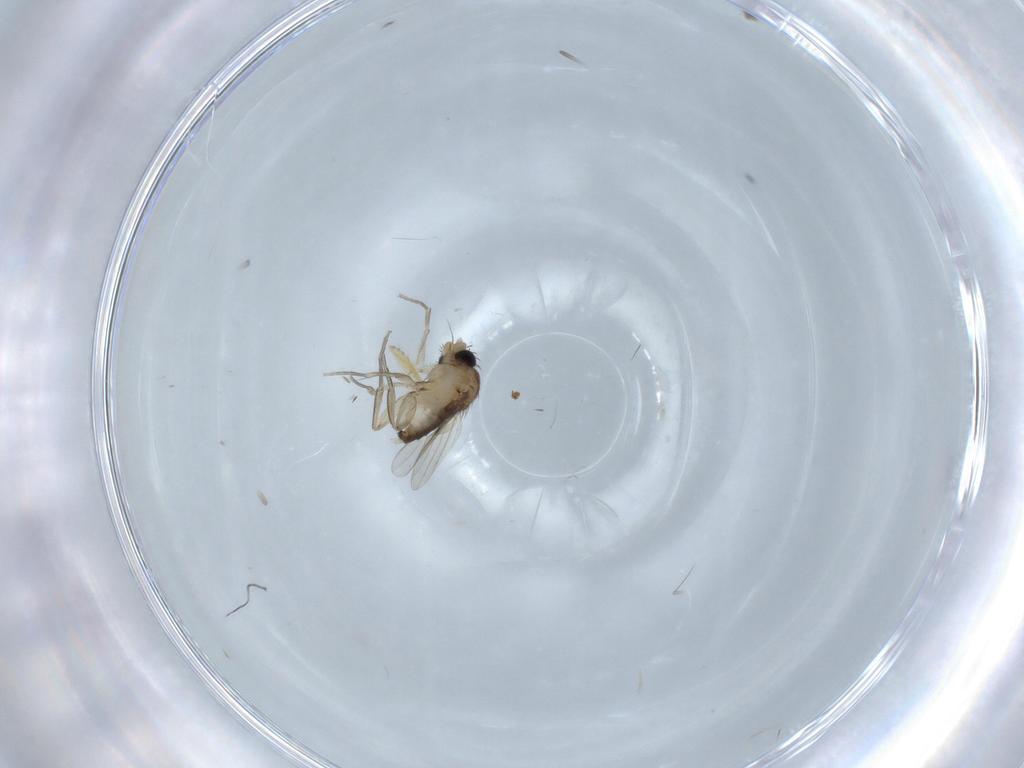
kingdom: Animalia
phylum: Arthropoda
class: Insecta
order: Diptera
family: Phoridae
